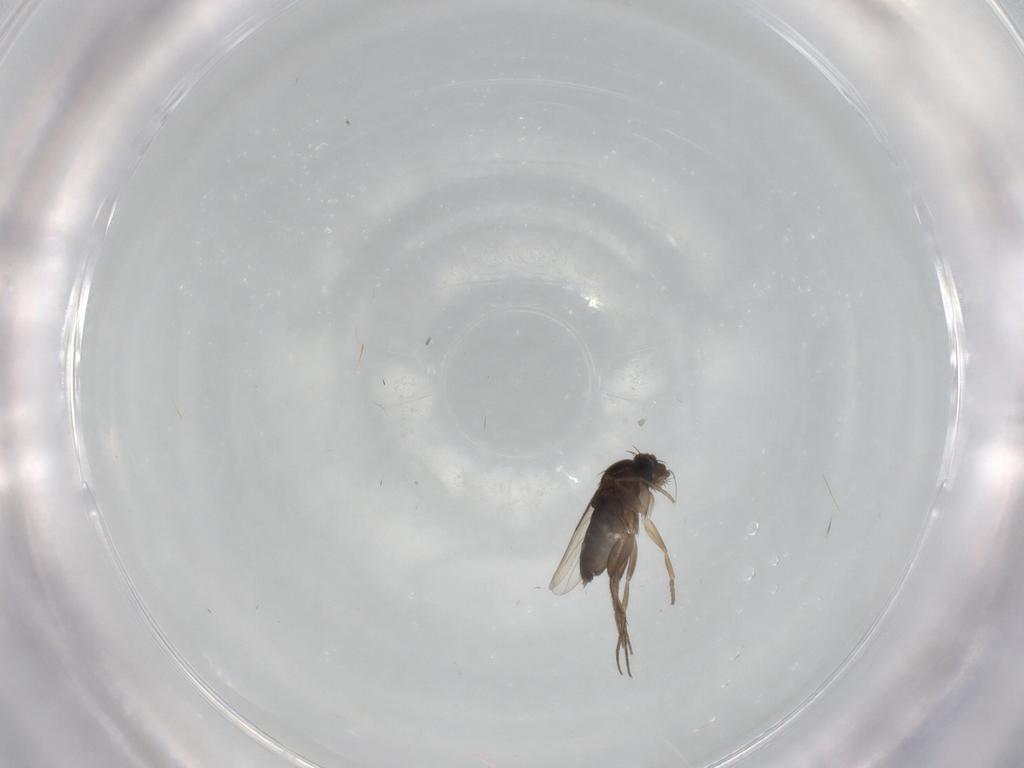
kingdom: Animalia
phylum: Arthropoda
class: Insecta
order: Diptera
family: Phoridae
